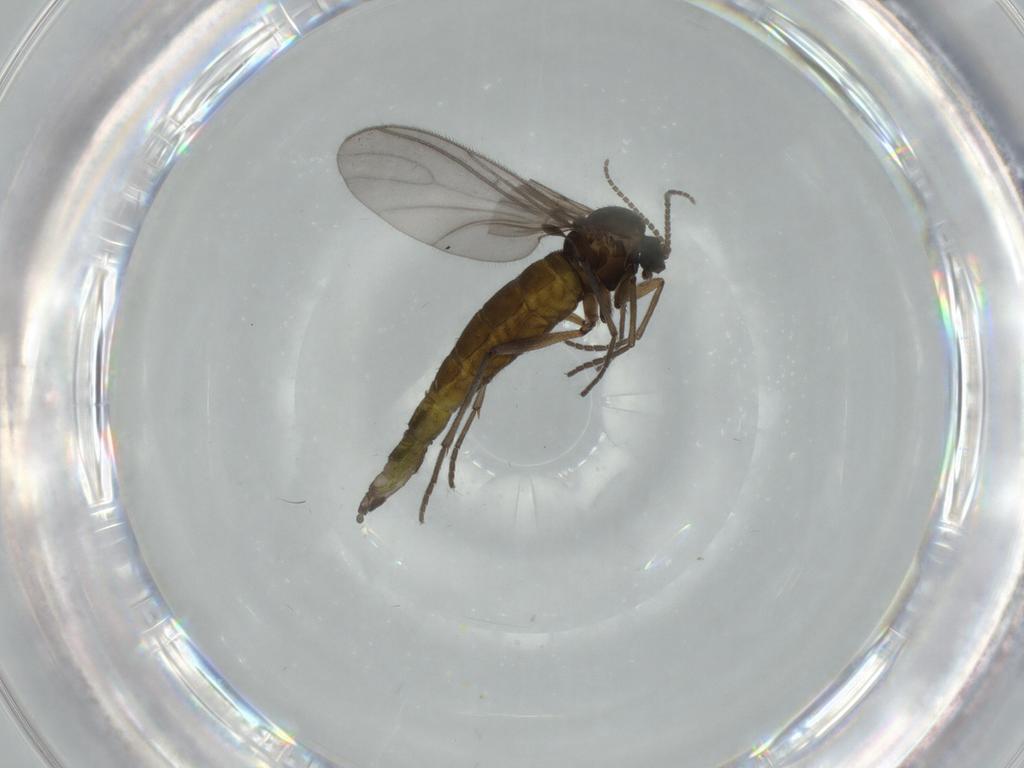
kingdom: Animalia
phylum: Arthropoda
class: Insecta
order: Diptera
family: Sciaridae
